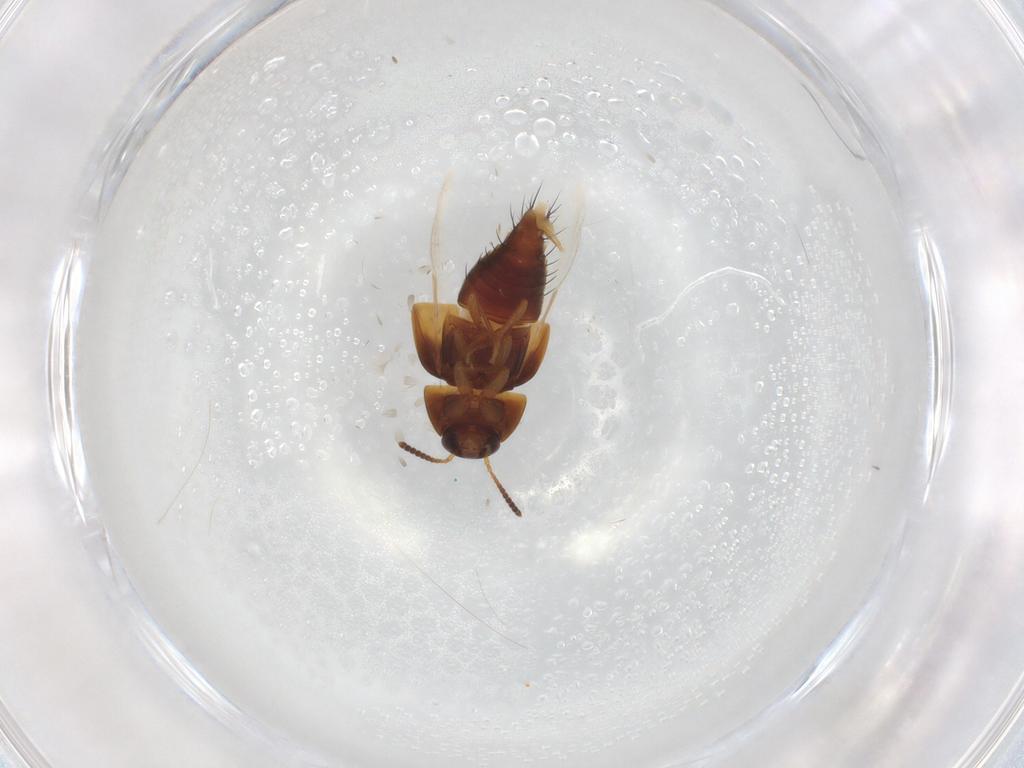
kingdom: Animalia
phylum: Arthropoda
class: Insecta
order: Coleoptera
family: Staphylinidae
